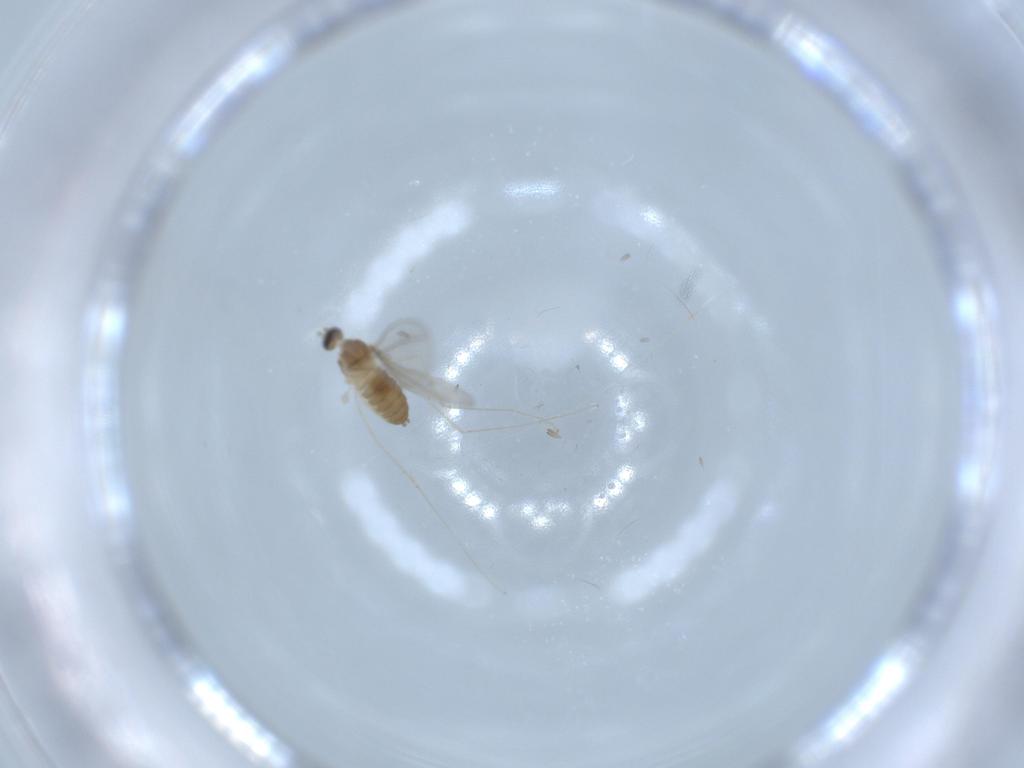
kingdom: Animalia
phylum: Arthropoda
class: Insecta
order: Diptera
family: Cecidomyiidae
